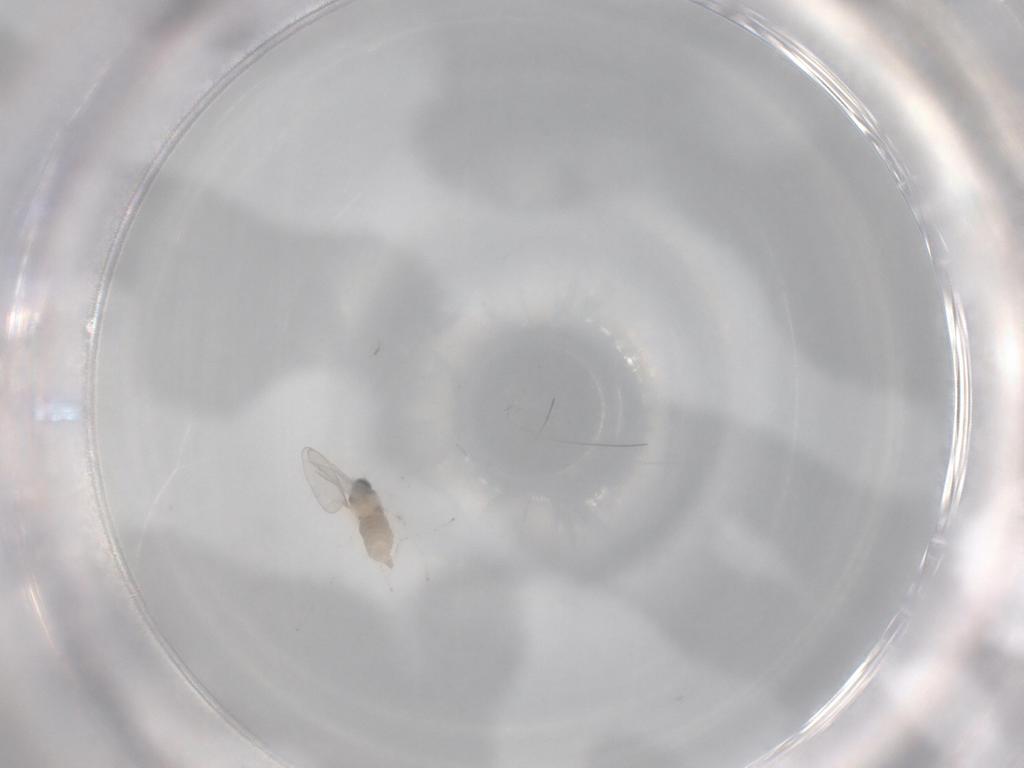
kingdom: Animalia
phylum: Arthropoda
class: Insecta
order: Diptera
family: Cecidomyiidae
